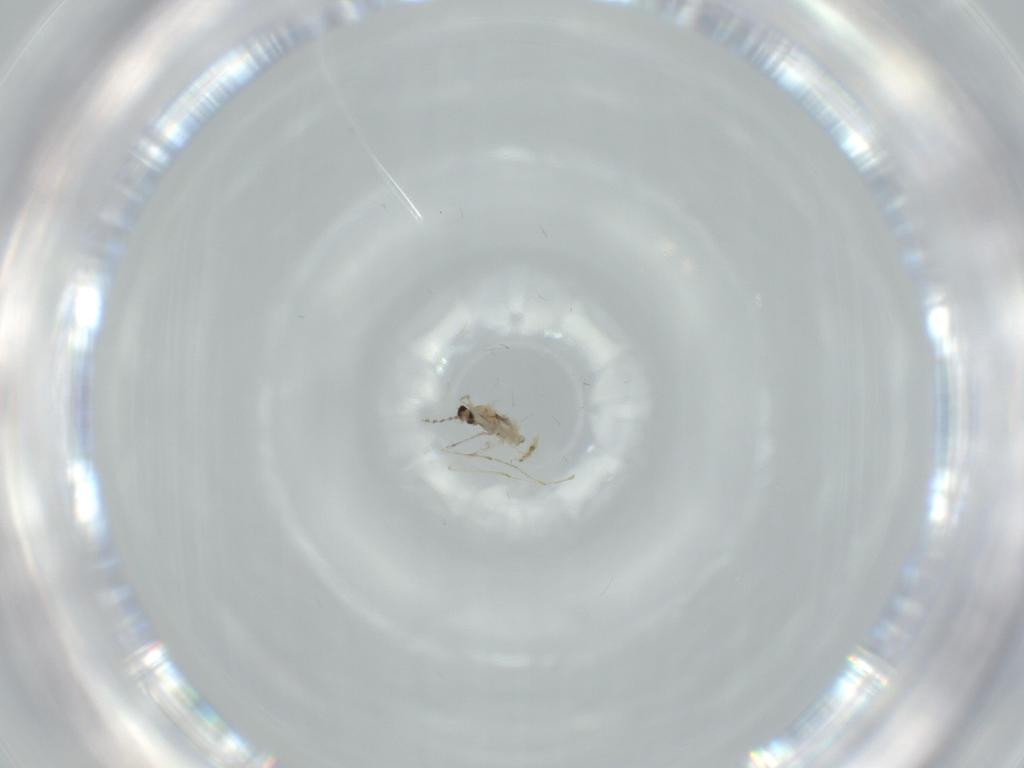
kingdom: Animalia
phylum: Arthropoda
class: Insecta
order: Diptera
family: Cecidomyiidae
